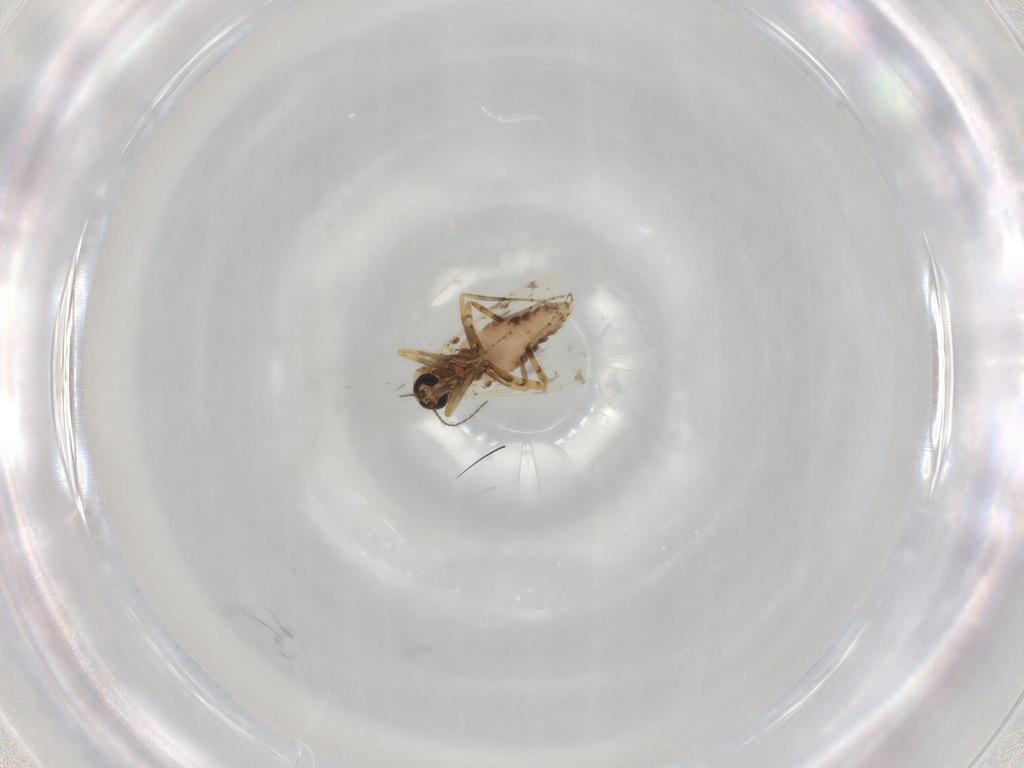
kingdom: Animalia
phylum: Arthropoda
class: Insecta
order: Diptera
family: Ceratopogonidae
